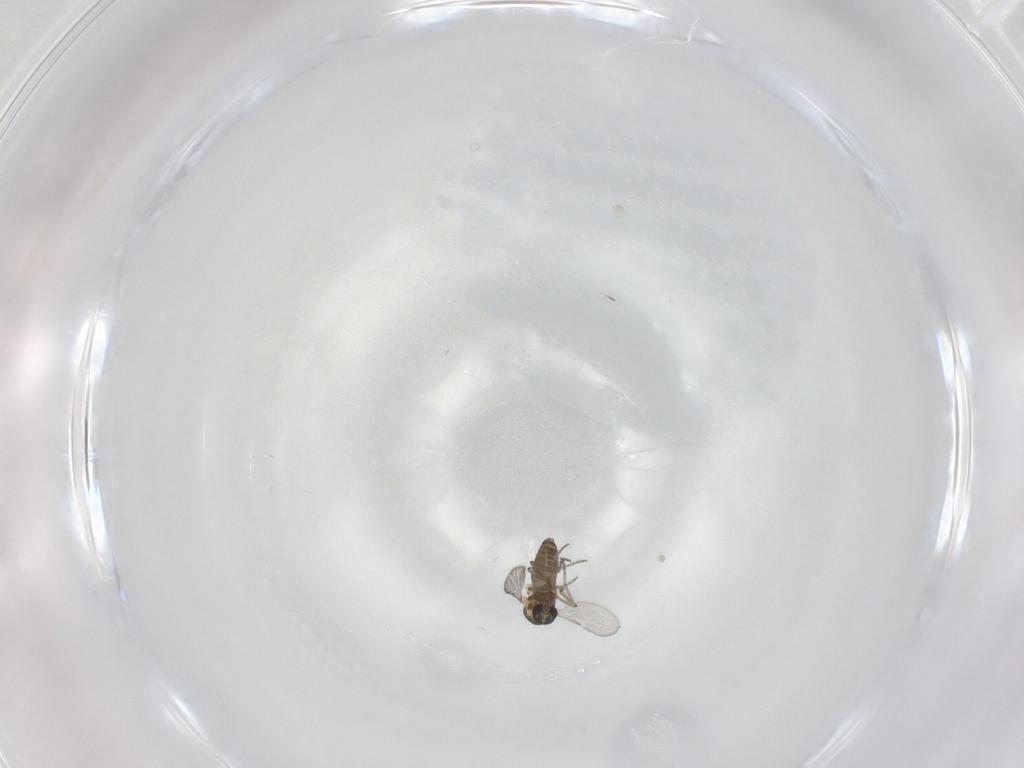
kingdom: Animalia
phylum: Arthropoda
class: Insecta
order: Diptera
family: Ceratopogonidae
